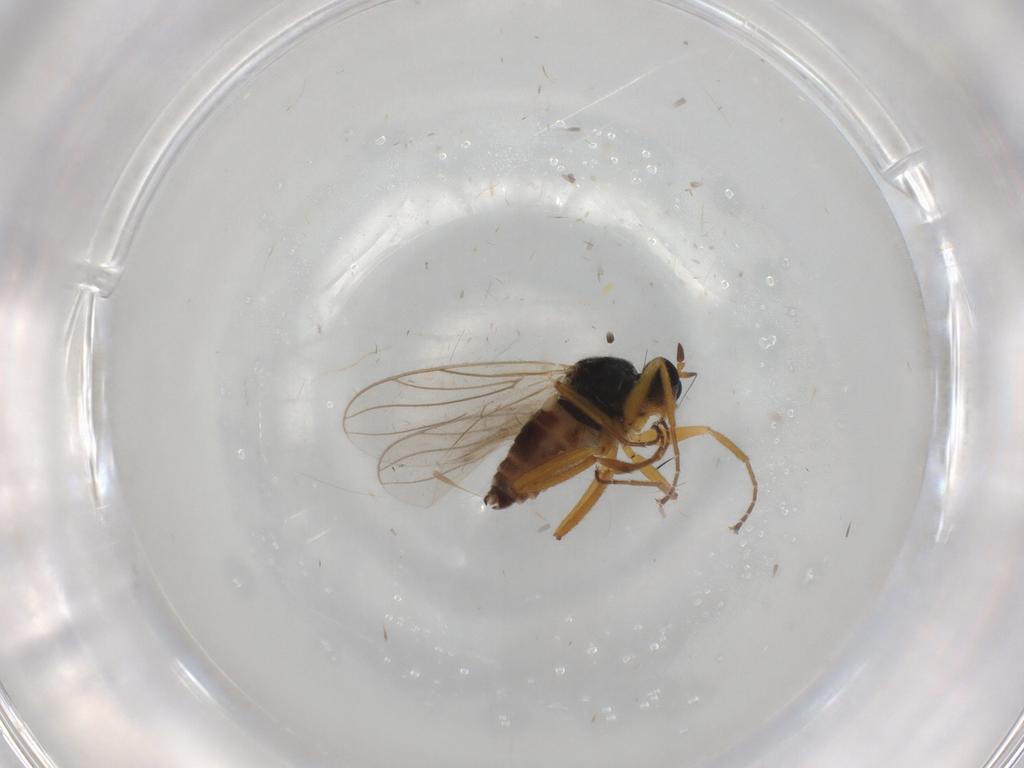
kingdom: Animalia
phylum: Arthropoda
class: Insecta
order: Diptera
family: Hybotidae
